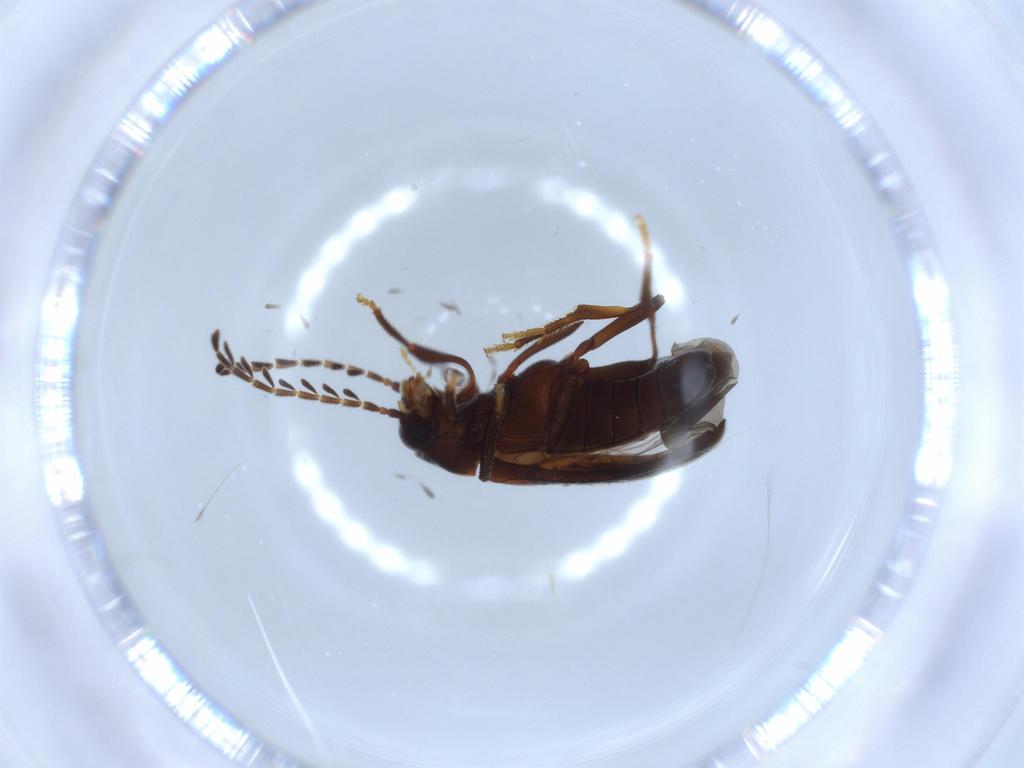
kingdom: Animalia
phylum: Arthropoda
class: Insecta
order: Coleoptera
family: Ptilodactylidae
